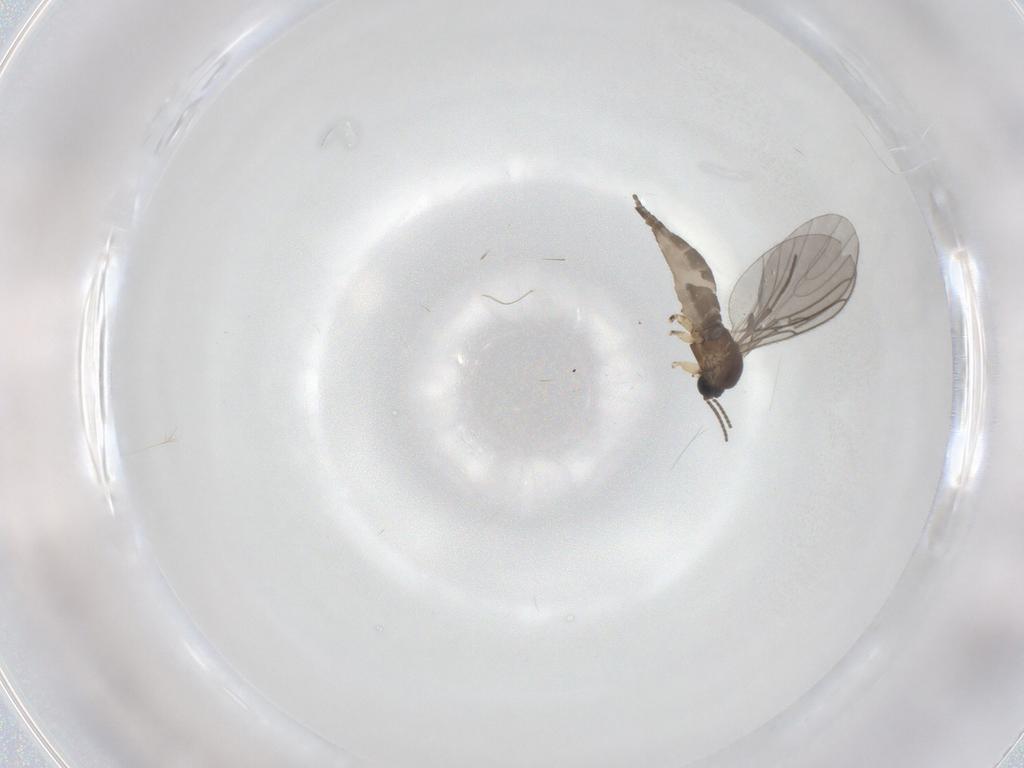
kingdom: Animalia
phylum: Arthropoda
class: Insecta
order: Diptera
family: Sciaridae
